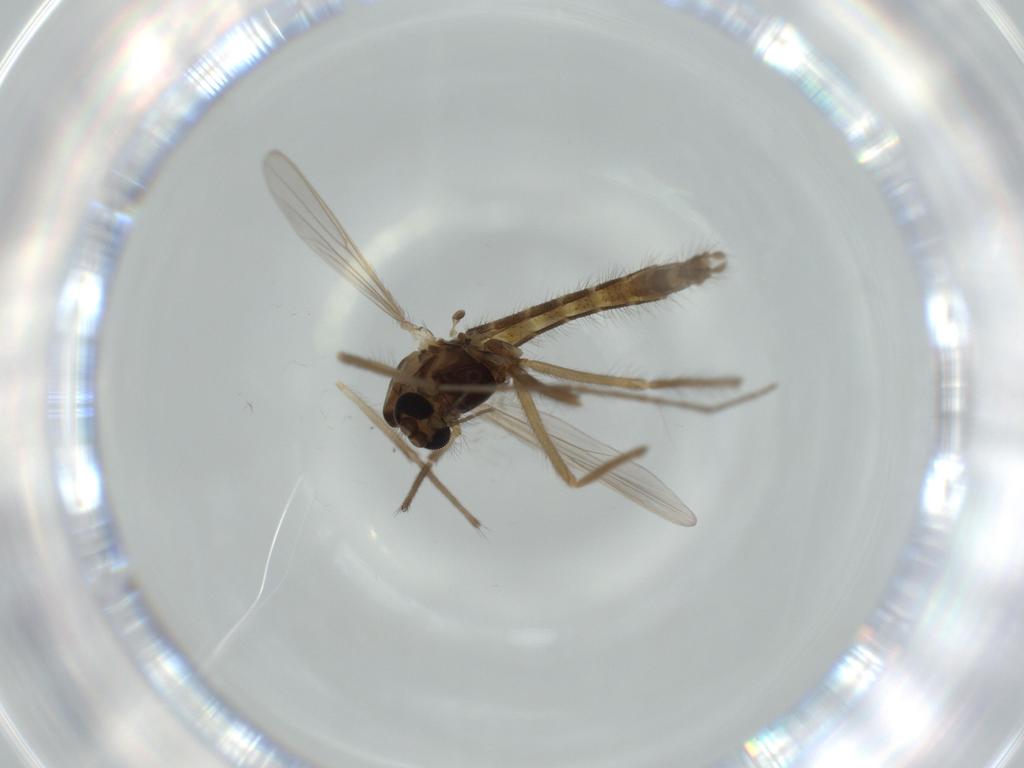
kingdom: Animalia
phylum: Arthropoda
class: Insecta
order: Diptera
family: Chironomidae
